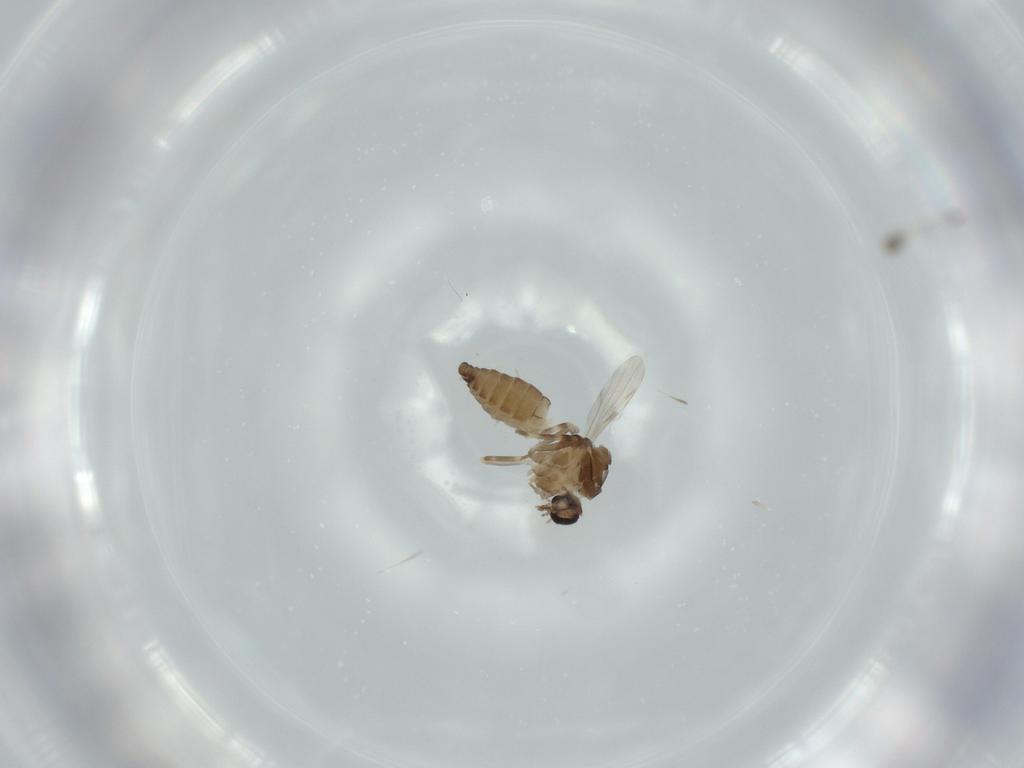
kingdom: Animalia
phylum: Arthropoda
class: Insecta
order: Diptera
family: Ceratopogonidae
